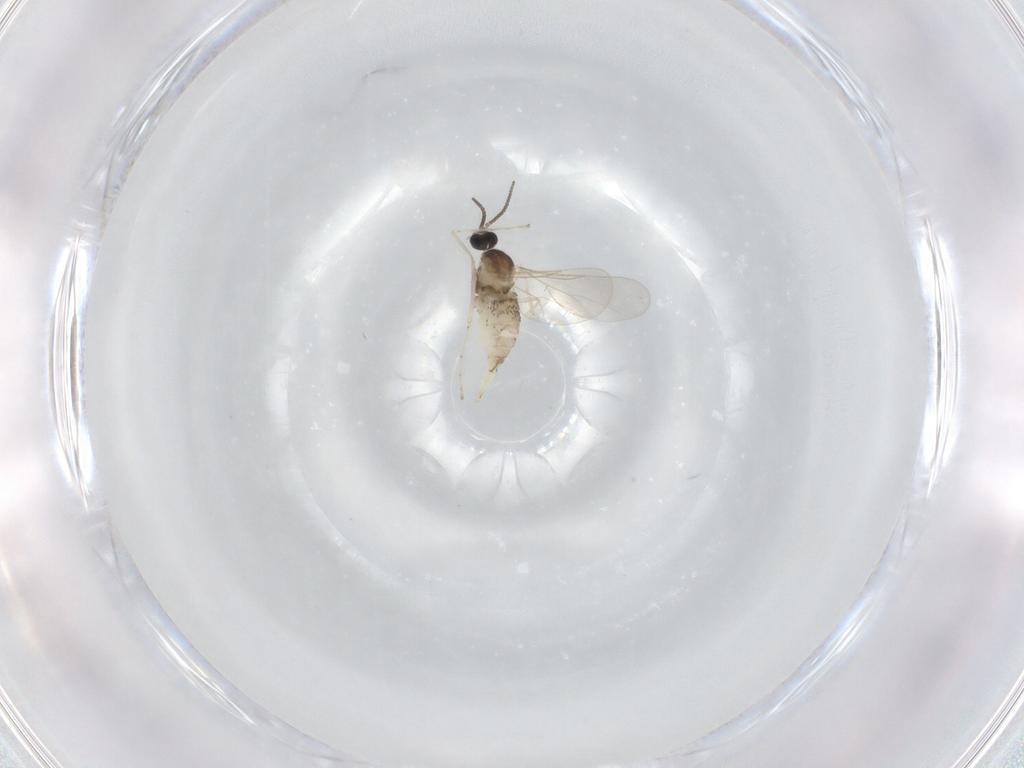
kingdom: Animalia
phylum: Arthropoda
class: Insecta
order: Diptera
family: Cecidomyiidae
